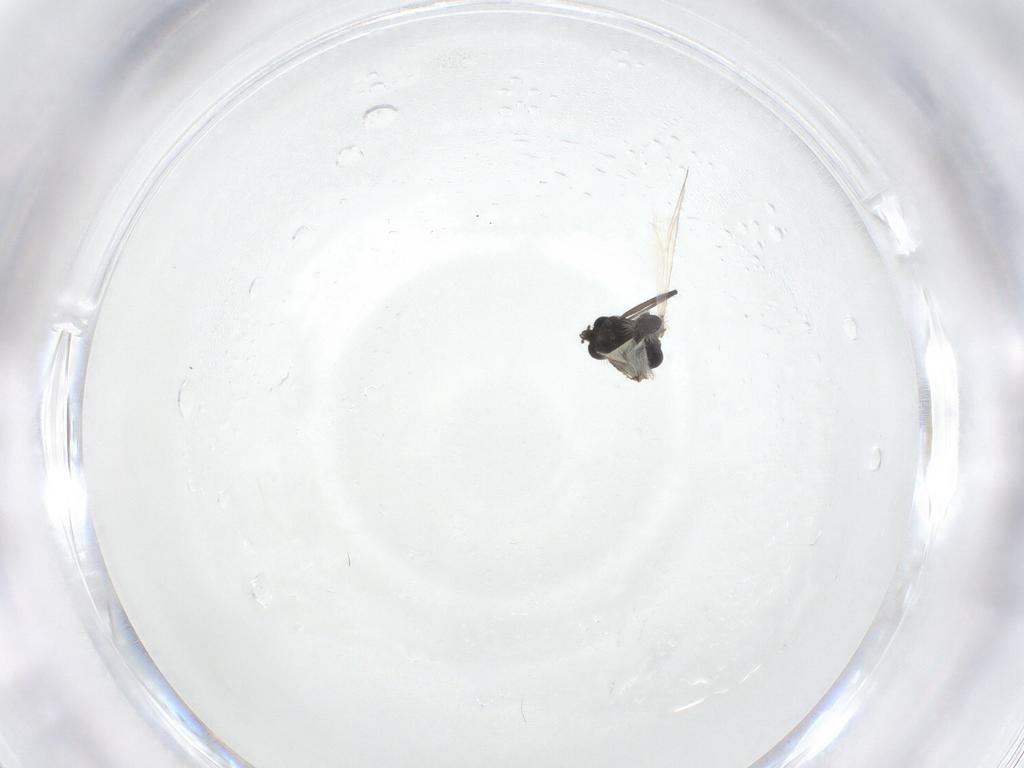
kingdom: Animalia
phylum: Arthropoda
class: Insecta
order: Diptera
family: Chironomidae
